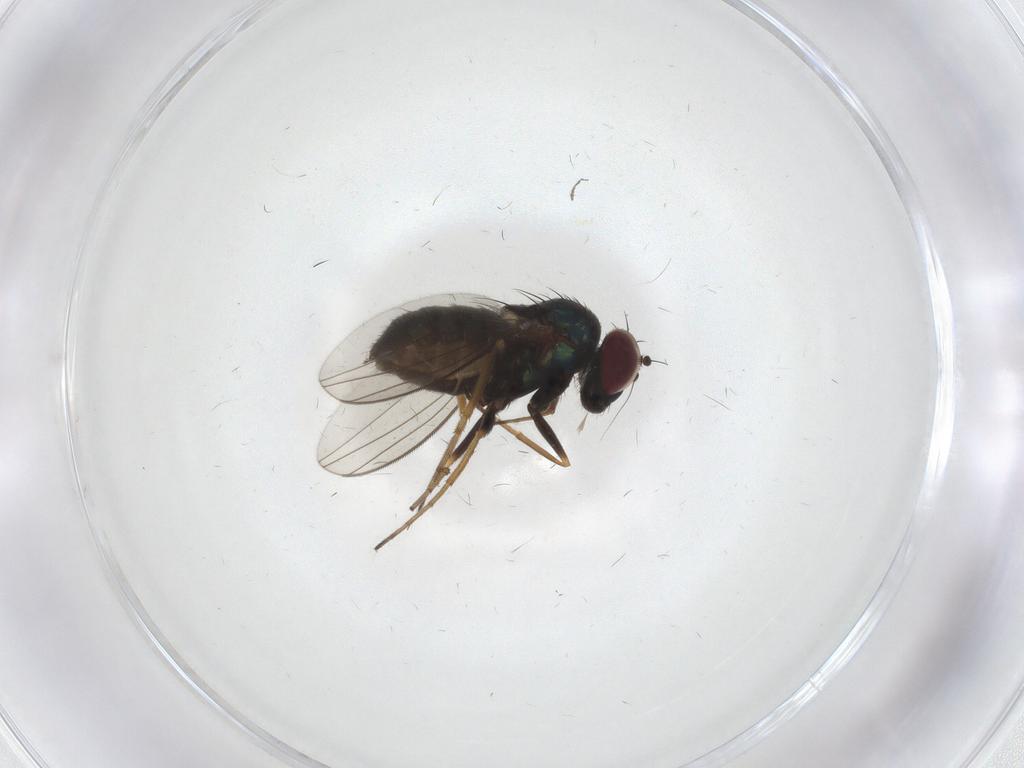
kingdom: Animalia
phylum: Arthropoda
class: Insecta
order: Diptera
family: Dolichopodidae
